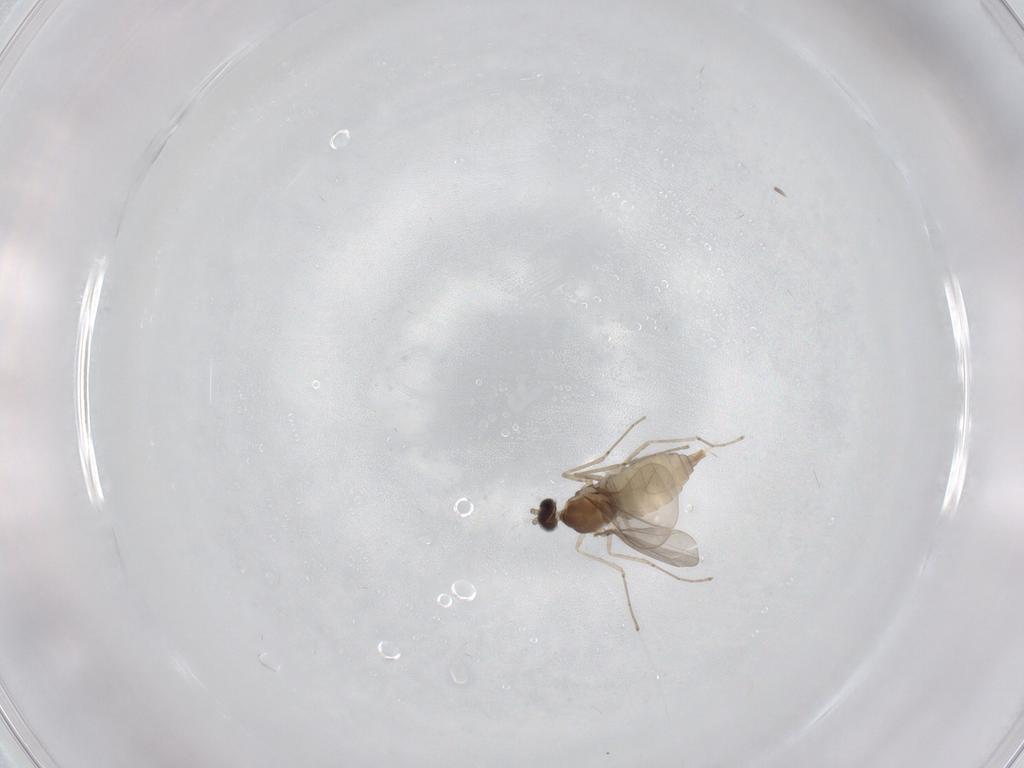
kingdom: Animalia
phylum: Arthropoda
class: Insecta
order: Diptera
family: Cecidomyiidae
